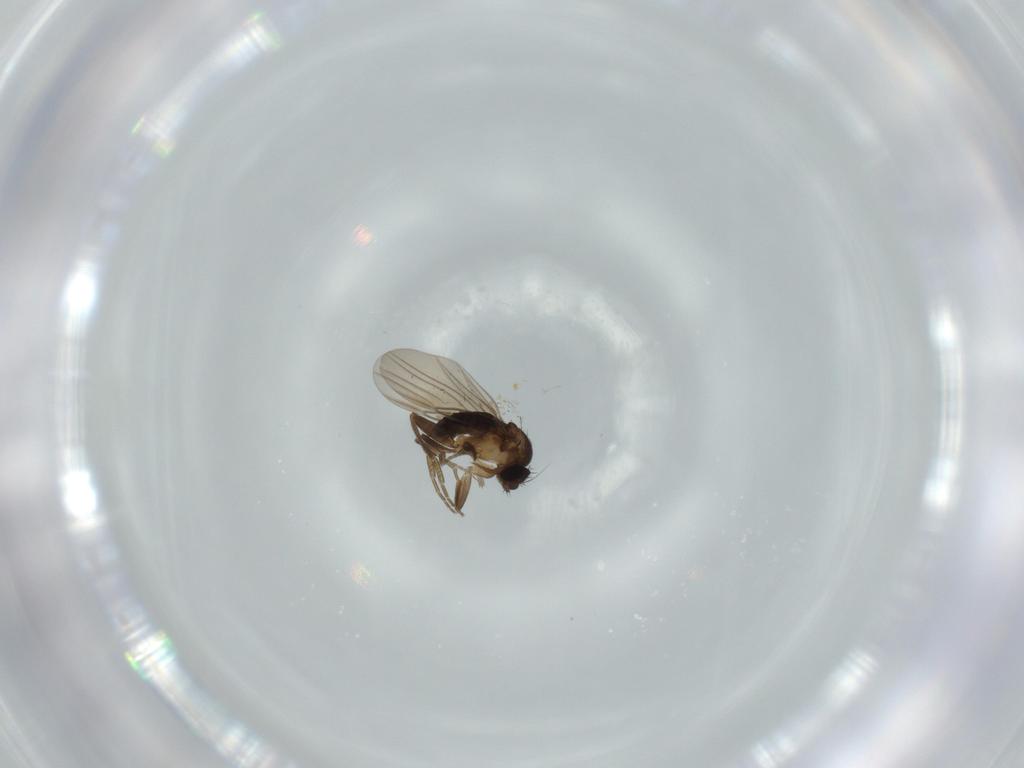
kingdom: Animalia
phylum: Arthropoda
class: Insecta
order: Diptera
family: Phoridae
